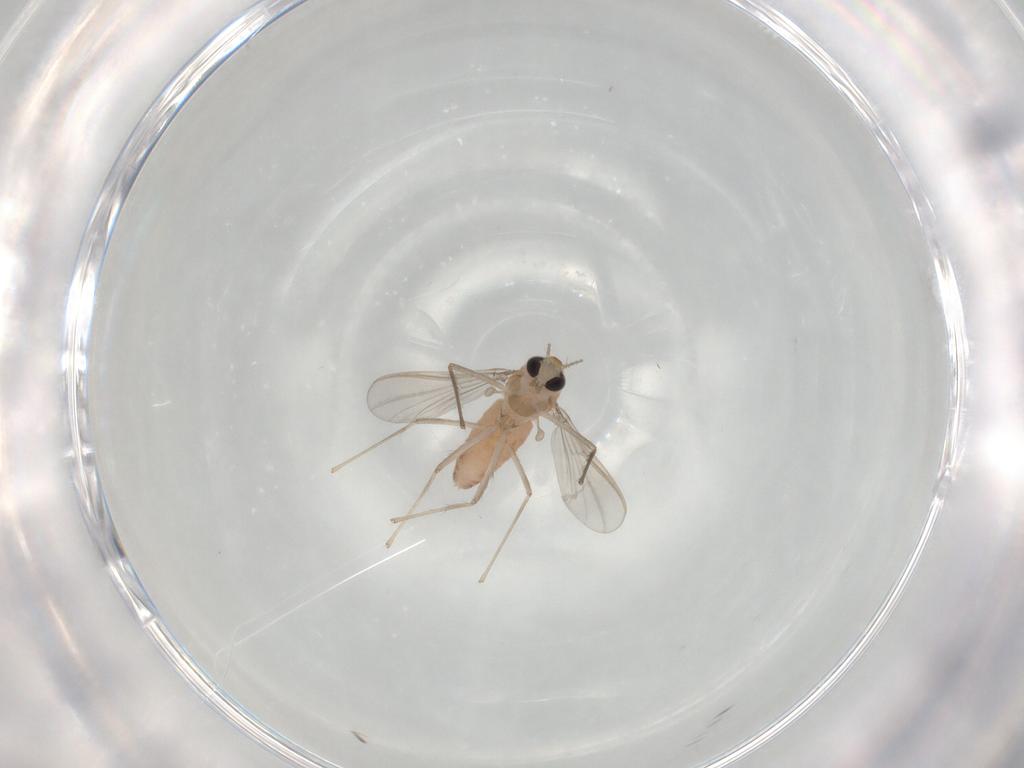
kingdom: Animalia
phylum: Arthropoda
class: Insecta
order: Diptera
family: Chironomidae
